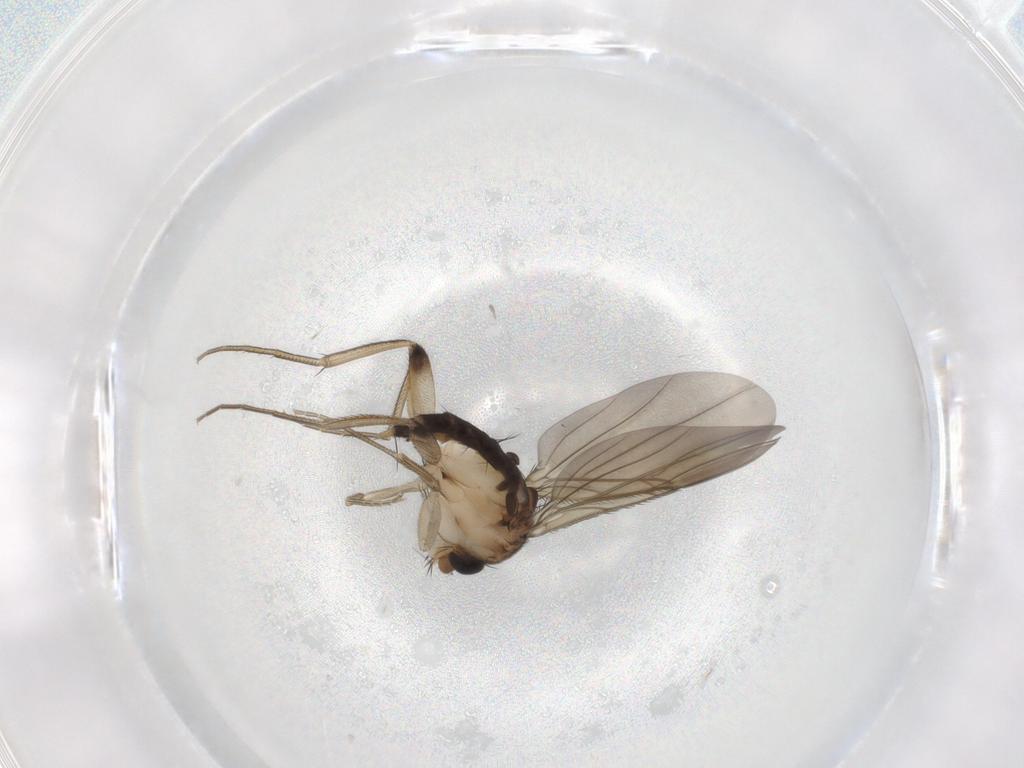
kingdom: Animalia
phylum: Arthropoda
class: Insecta
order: Diptera
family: Phoridae
